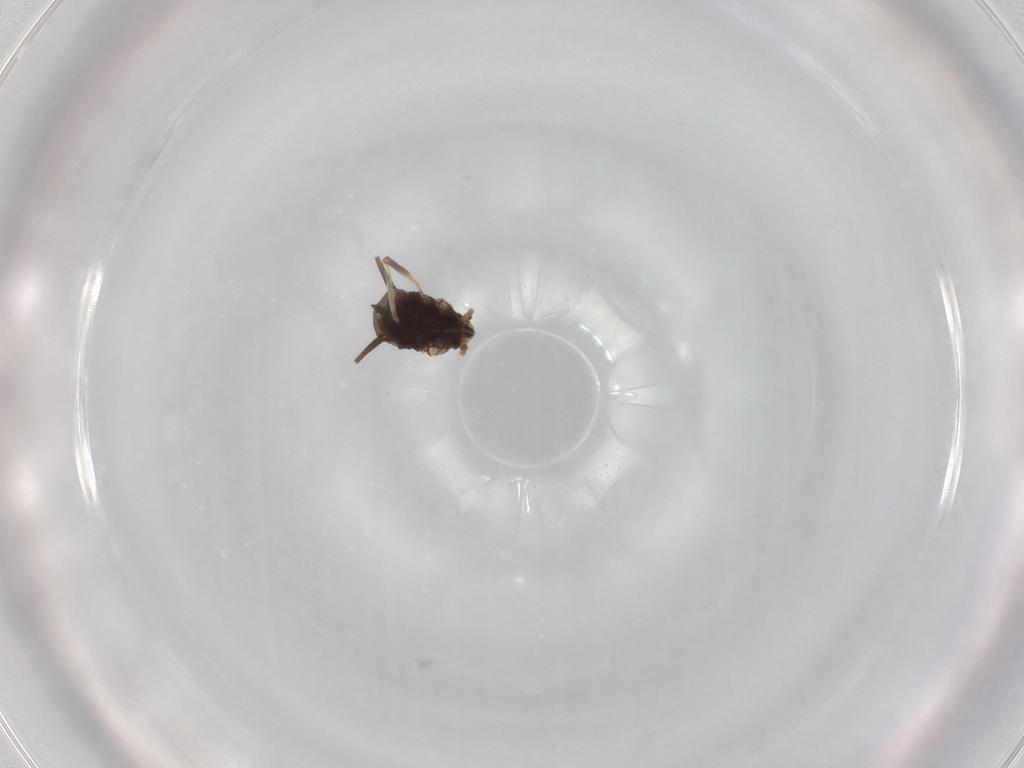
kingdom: Animalia
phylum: Arthropoda
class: Insecta
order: Hemiptera
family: Aphididae
